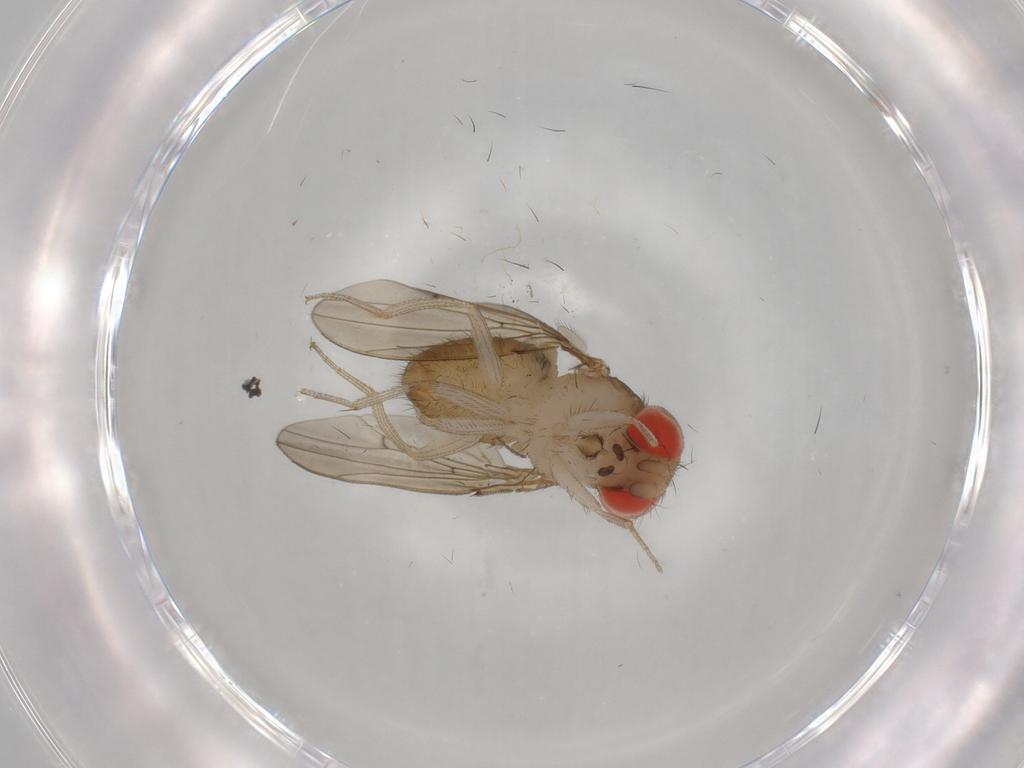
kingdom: Animalia
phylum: Arthropoda
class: Insecta
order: Diptera
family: Drosophilidae
